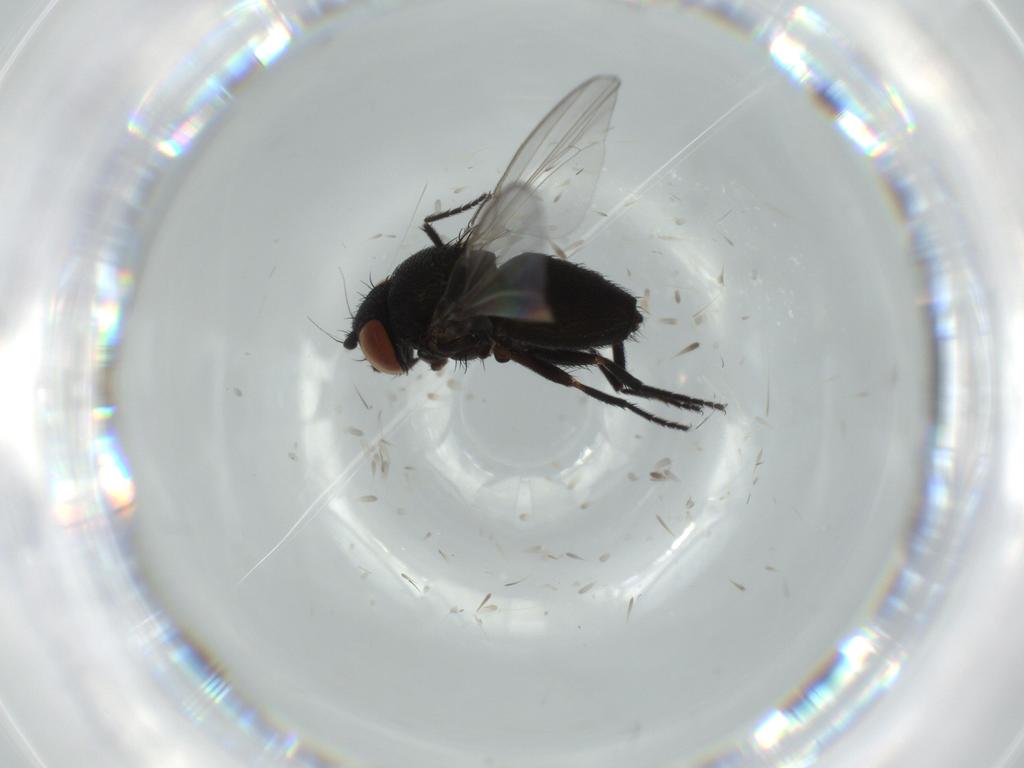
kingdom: Animalia
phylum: Arthropoda
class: Insecta
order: Diptera
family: Milichiidae
